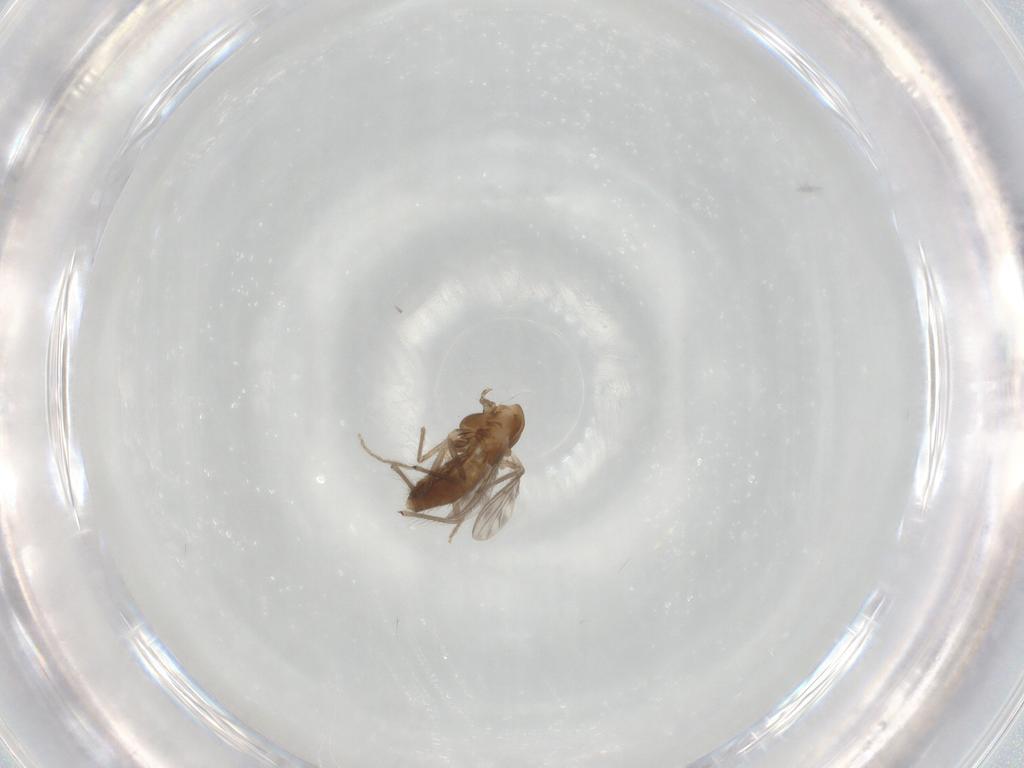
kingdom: Animalia
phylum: Arthropoda
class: Insecta
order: Diptera
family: Chironomidae
